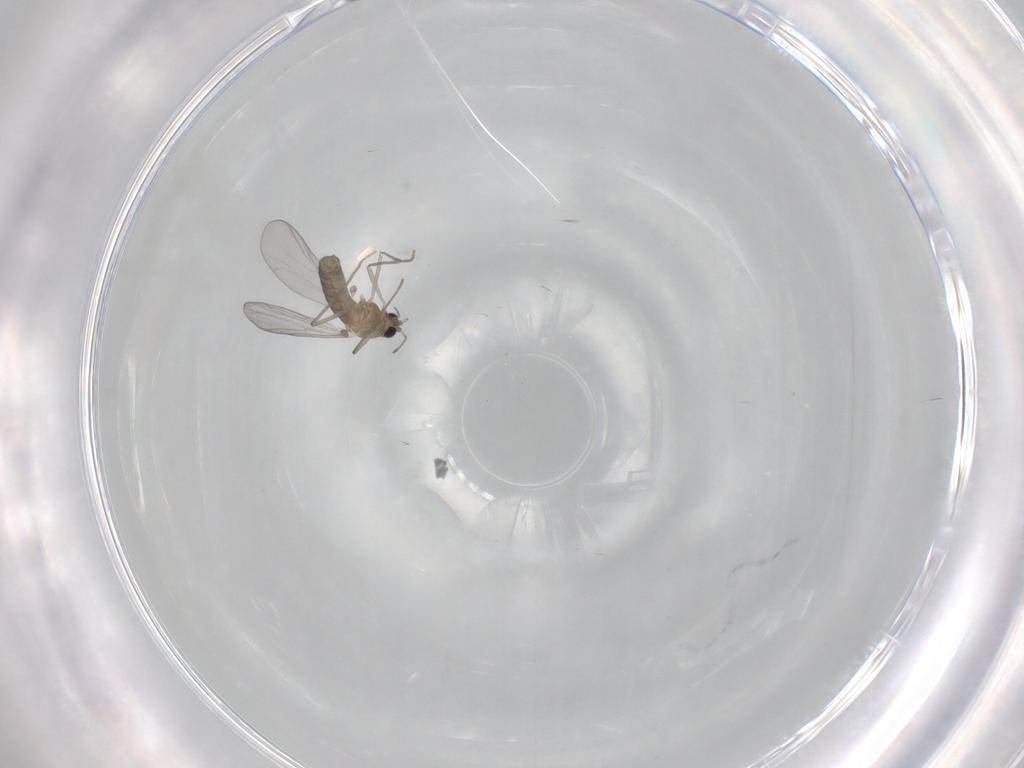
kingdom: Animalia
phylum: Arthropoda
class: Insecta
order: Diptera
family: Chironomidae
